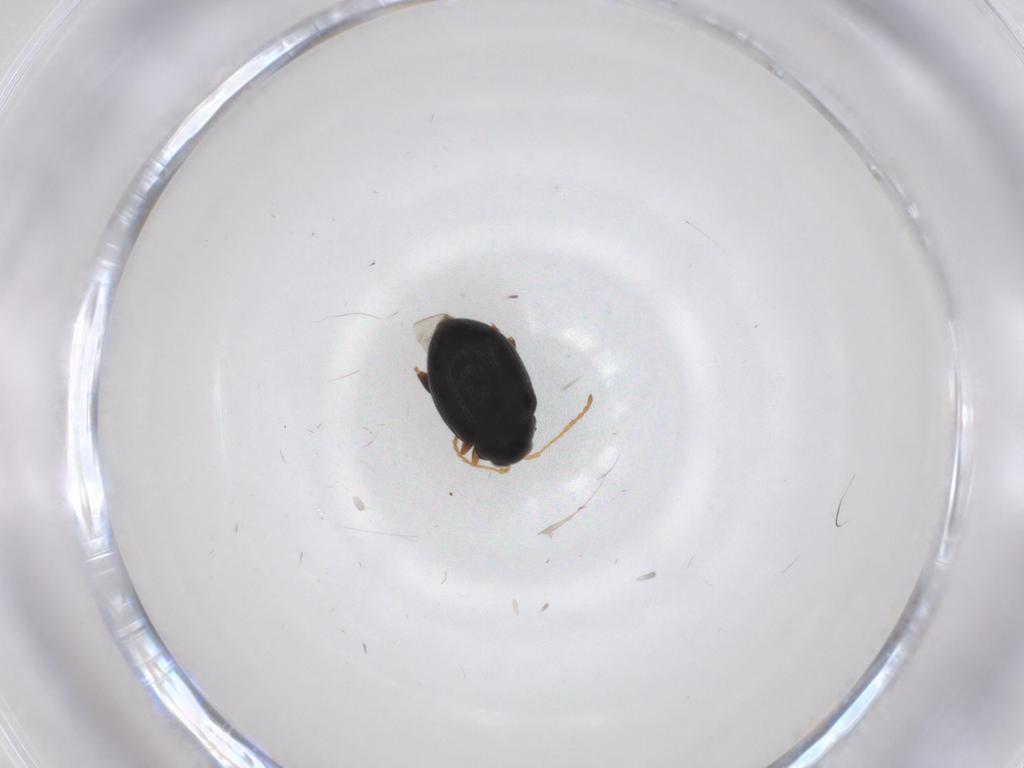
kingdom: Animalia
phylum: Arthropoda
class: Insecta
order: Coleoptera
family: Chrysomelidae
